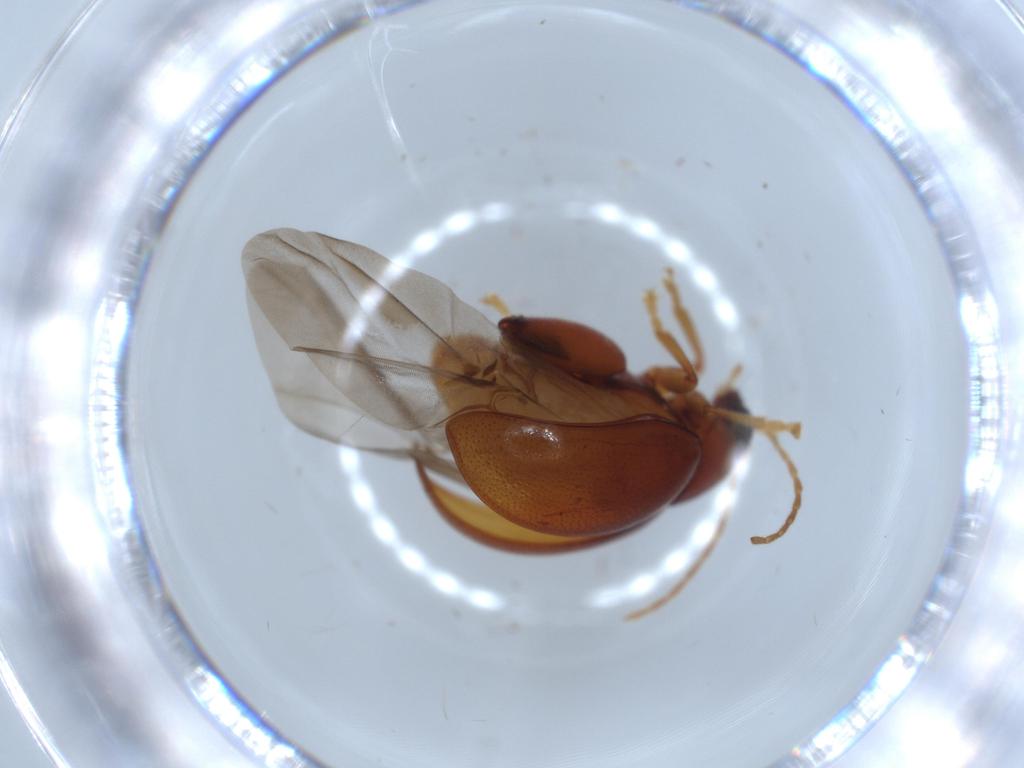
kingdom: Animalia
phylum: Arthropoda
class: Insecta
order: Coleoptera
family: Chrysomelidae
